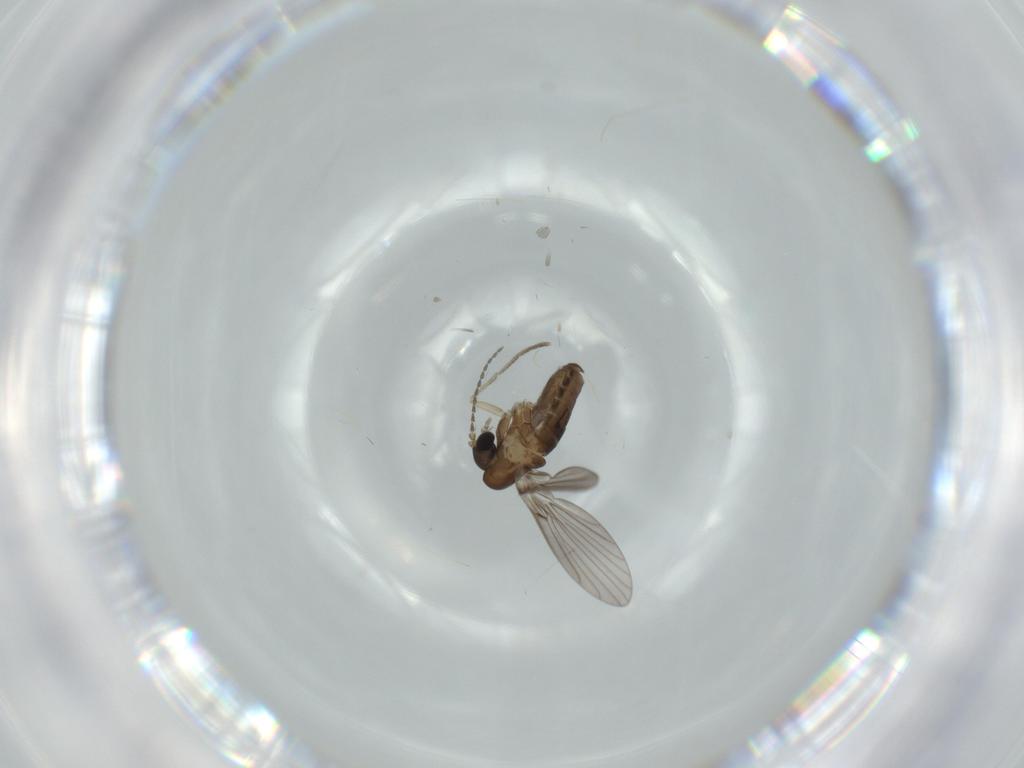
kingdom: Animalia
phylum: Arthropoda
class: Insecta
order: Diptera
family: Psychodidae
